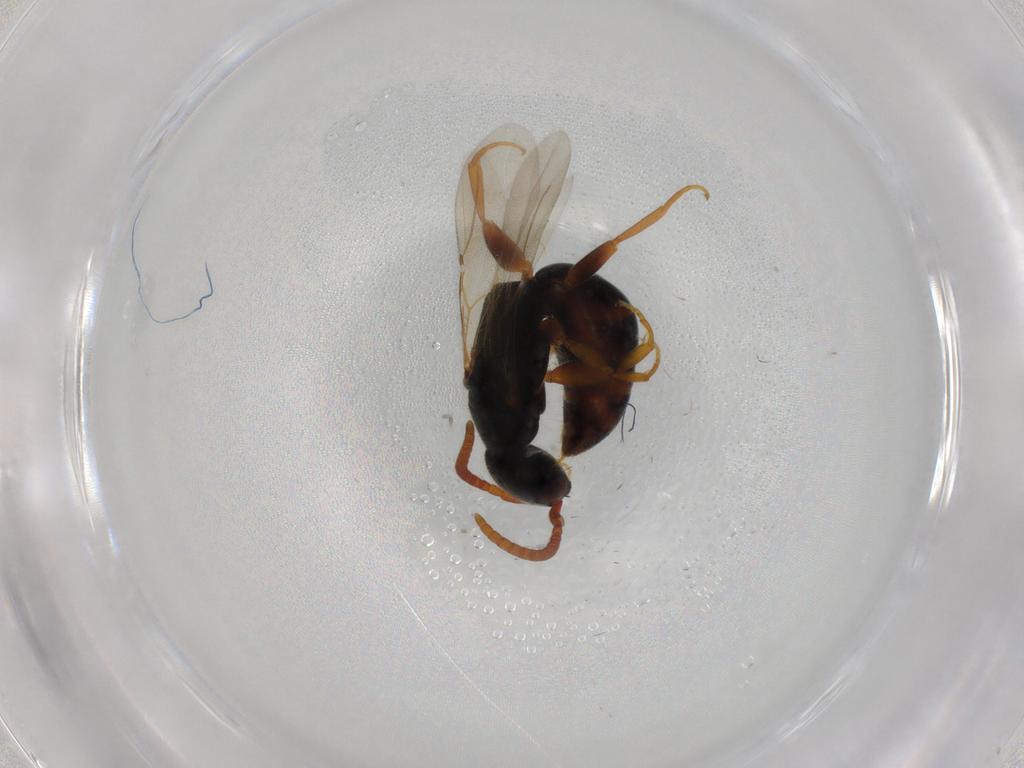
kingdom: Animalia
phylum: Arthropoda
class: Insecta
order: Hymenoptera
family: Bethylidae
